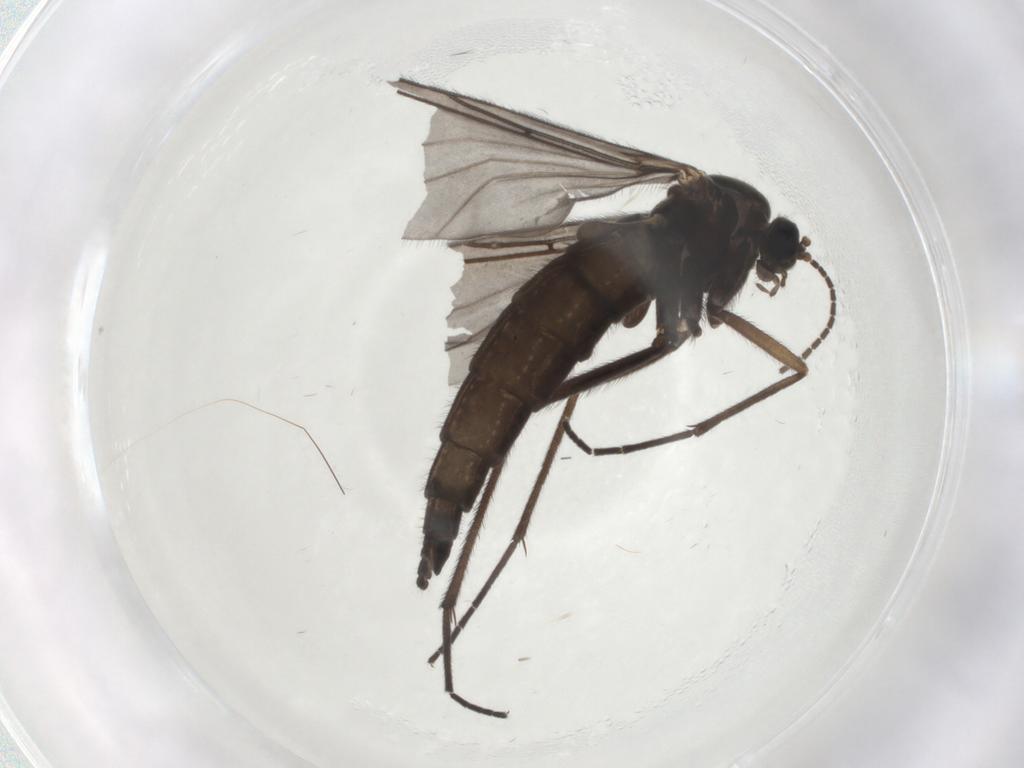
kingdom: Animalia
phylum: Arthropoda
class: Insecta
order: Diptera
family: Sciaridae
